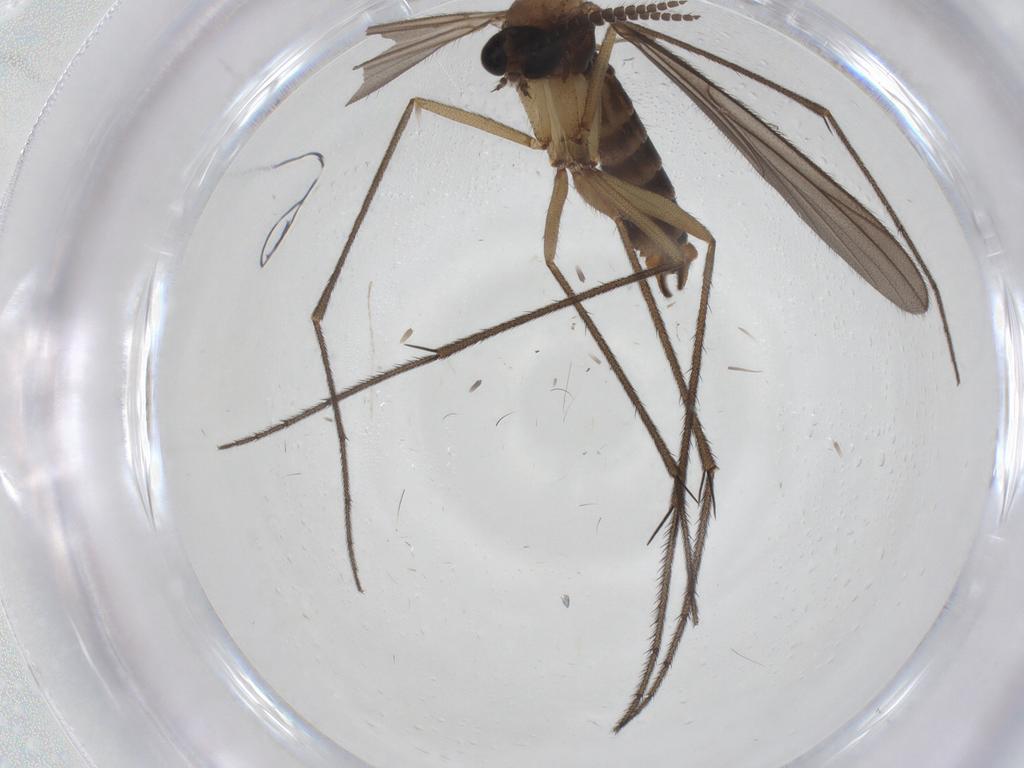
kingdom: Animalia
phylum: Arthropoda
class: Insecta
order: Diptera
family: Cecidomyiidae
